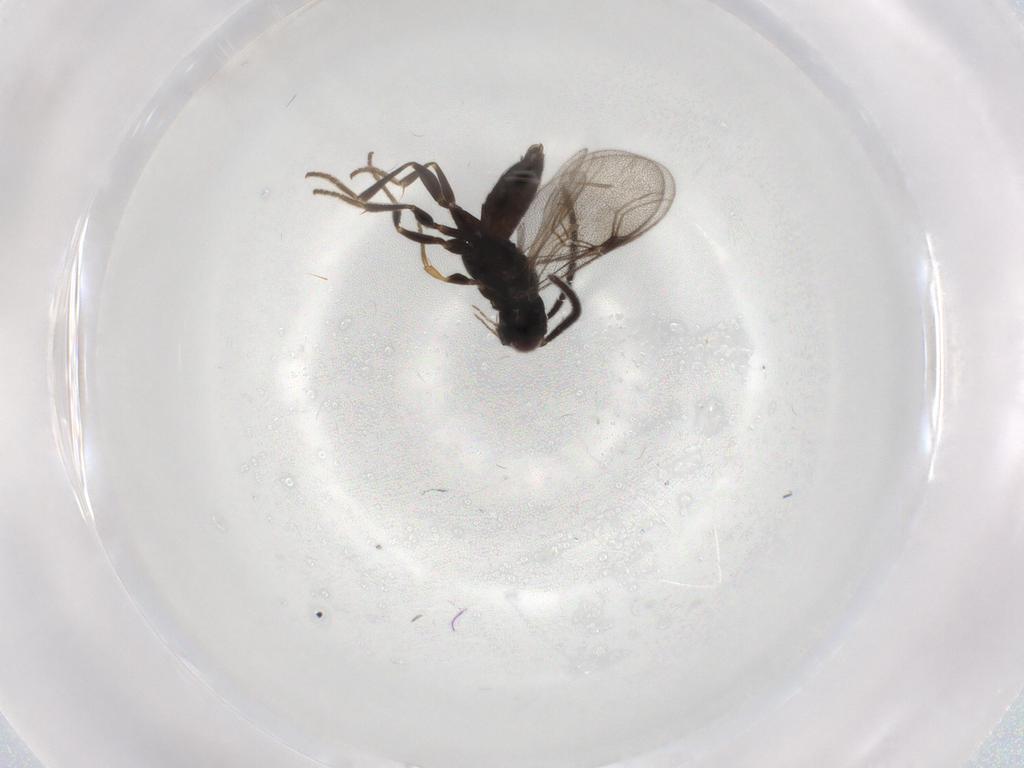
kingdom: Animalia
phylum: Arthropoda
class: Insecta
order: Hymenoptera
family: Dryinidae
